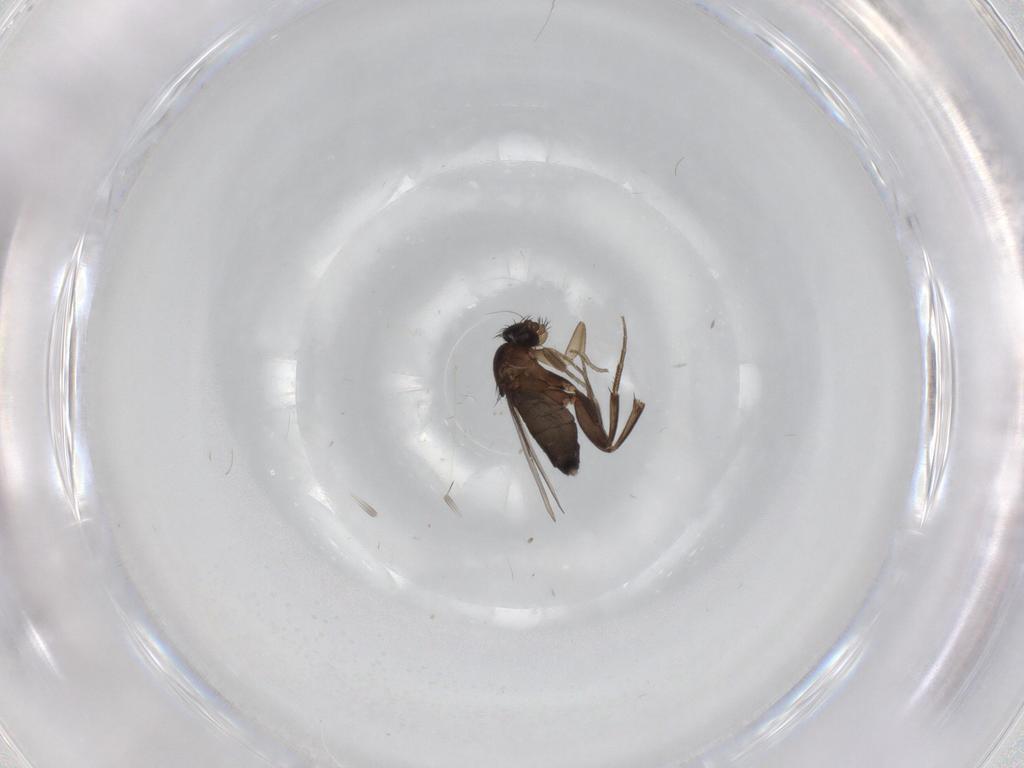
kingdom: Animalia
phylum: Arthropoda
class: Insecta
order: Diptera
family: Phoridae
